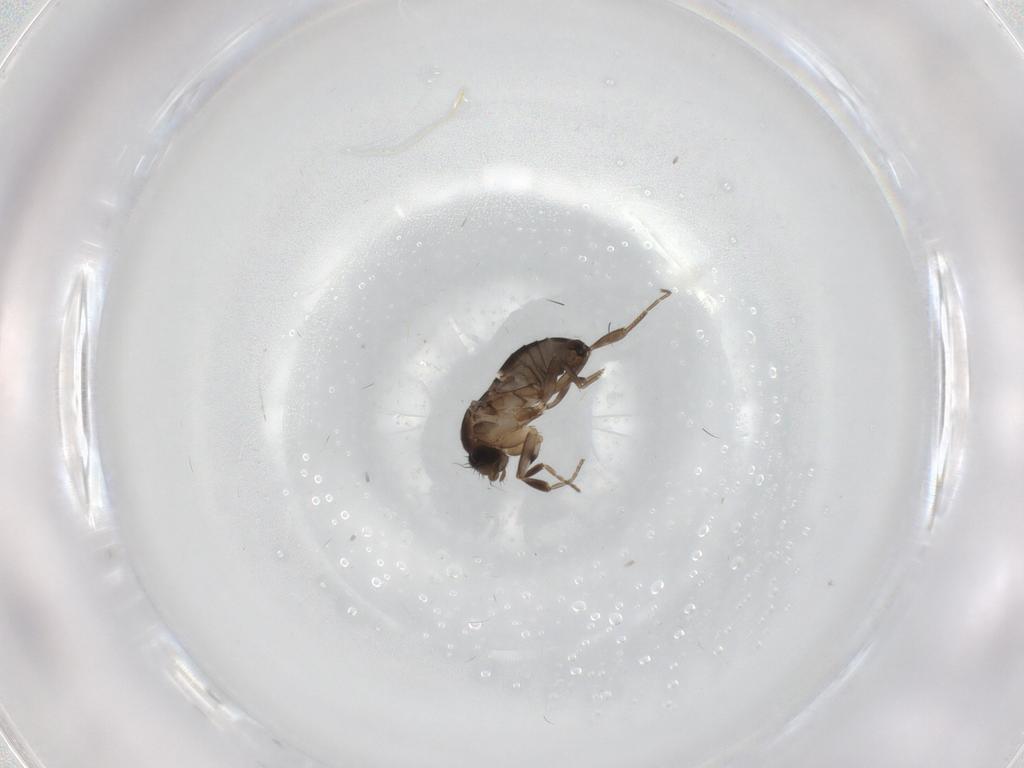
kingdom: Animalia
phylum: Arthropoda
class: Insecta
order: Diptera
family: Phoridae
